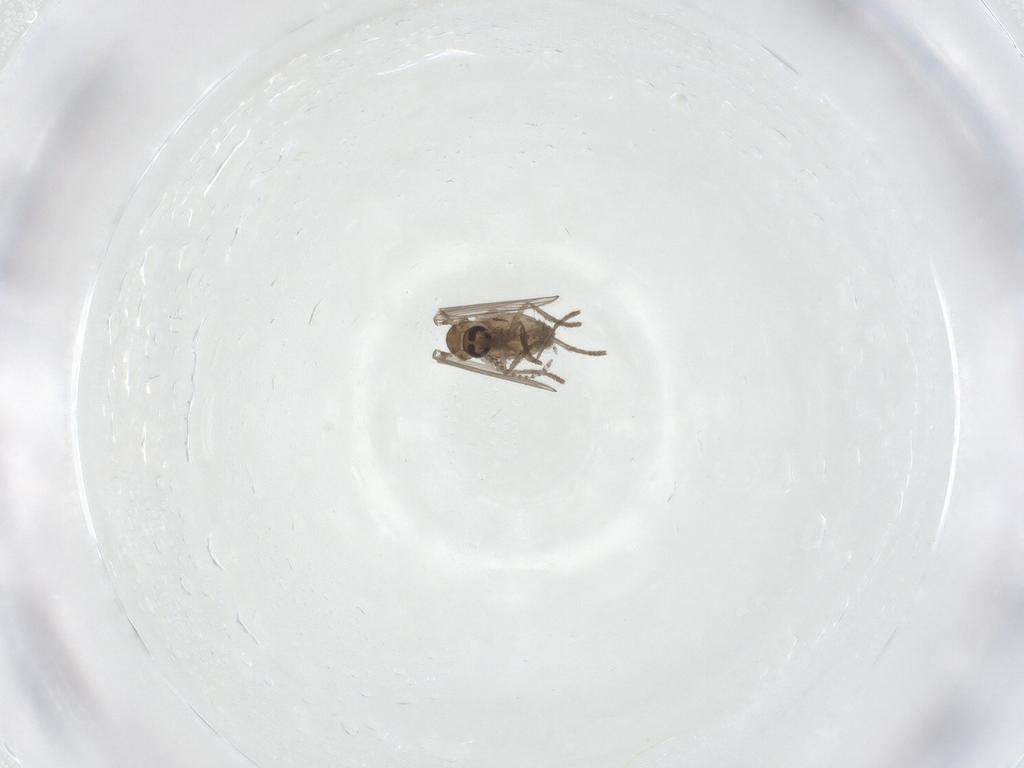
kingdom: Animalia
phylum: Arthropoda
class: Insecta
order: Diptera
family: Psychodidae
